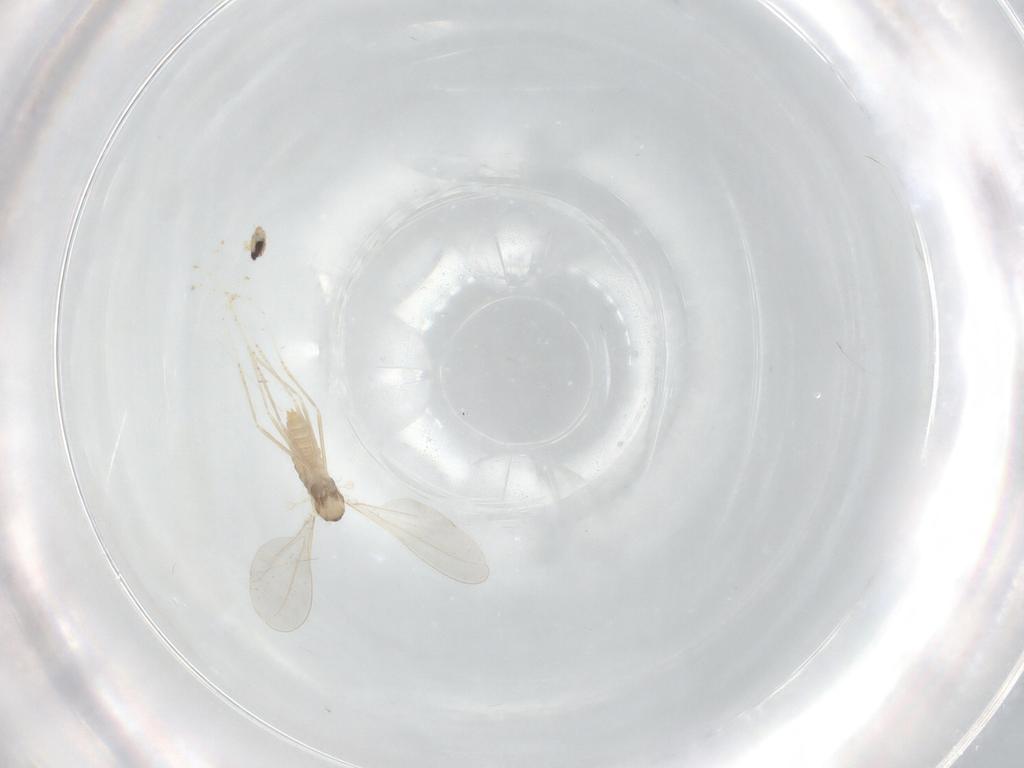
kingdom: Animalia
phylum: Arthropoda
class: Insecta
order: Diptera
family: Cecidomyiidae
